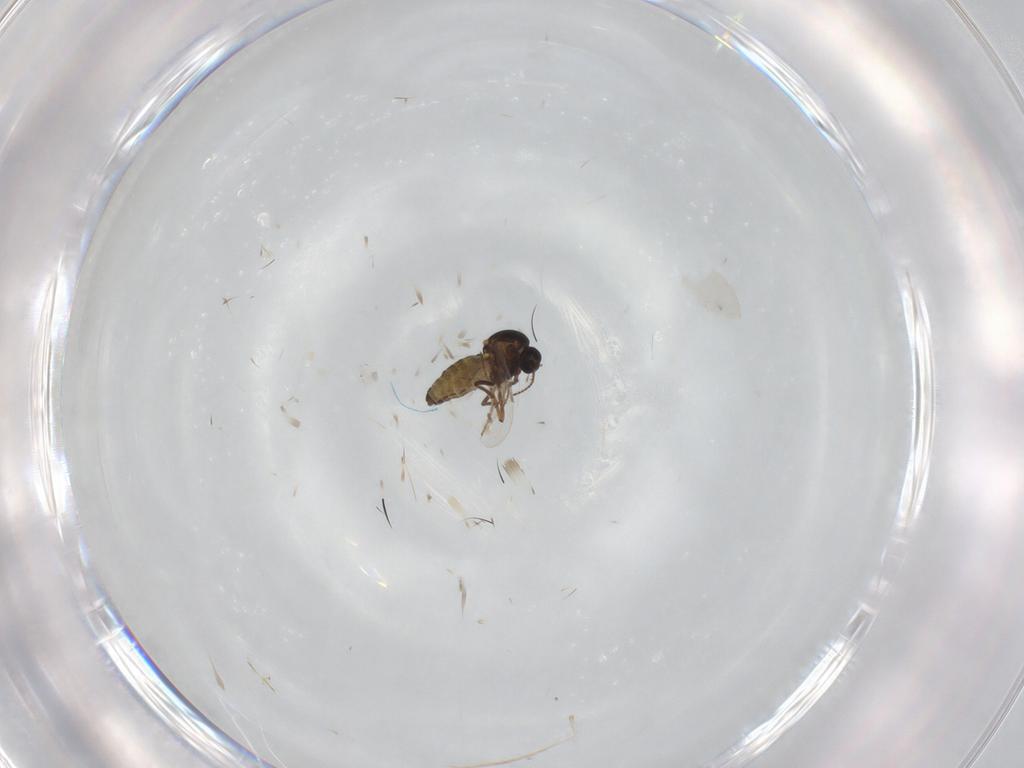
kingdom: Animalia
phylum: Arthropoda
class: Insecta
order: Diptera
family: Ceratopogonidae
